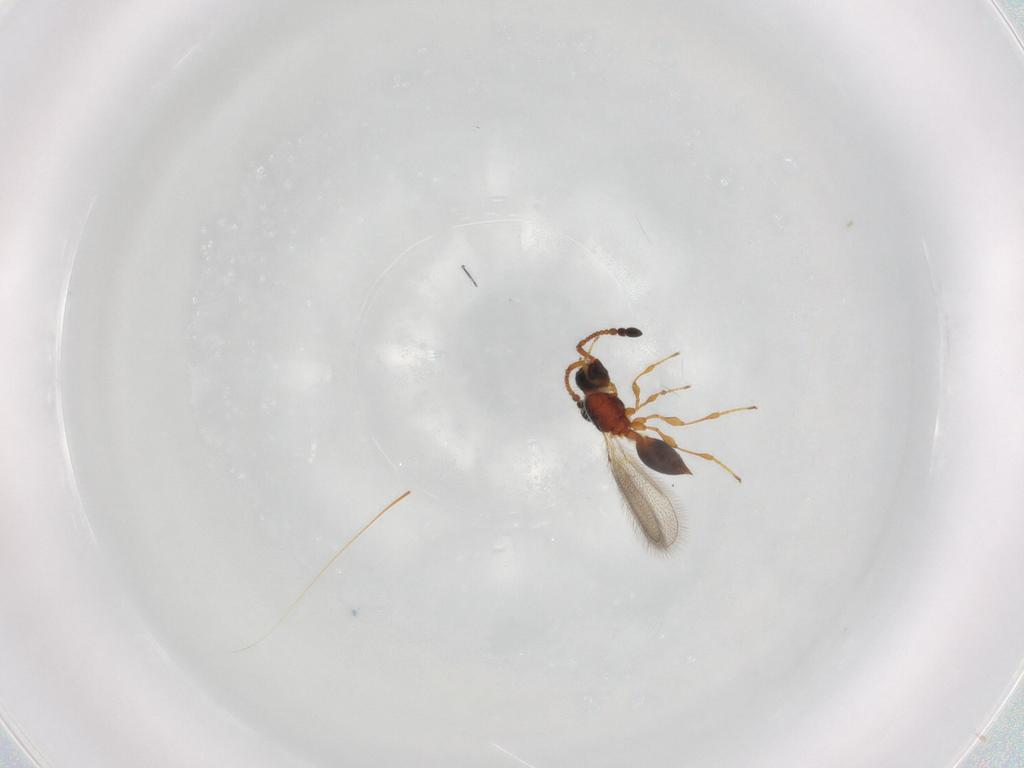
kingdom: Animalia
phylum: Arthropoda
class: Insecta
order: Hymenoptera
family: Diapriidae
